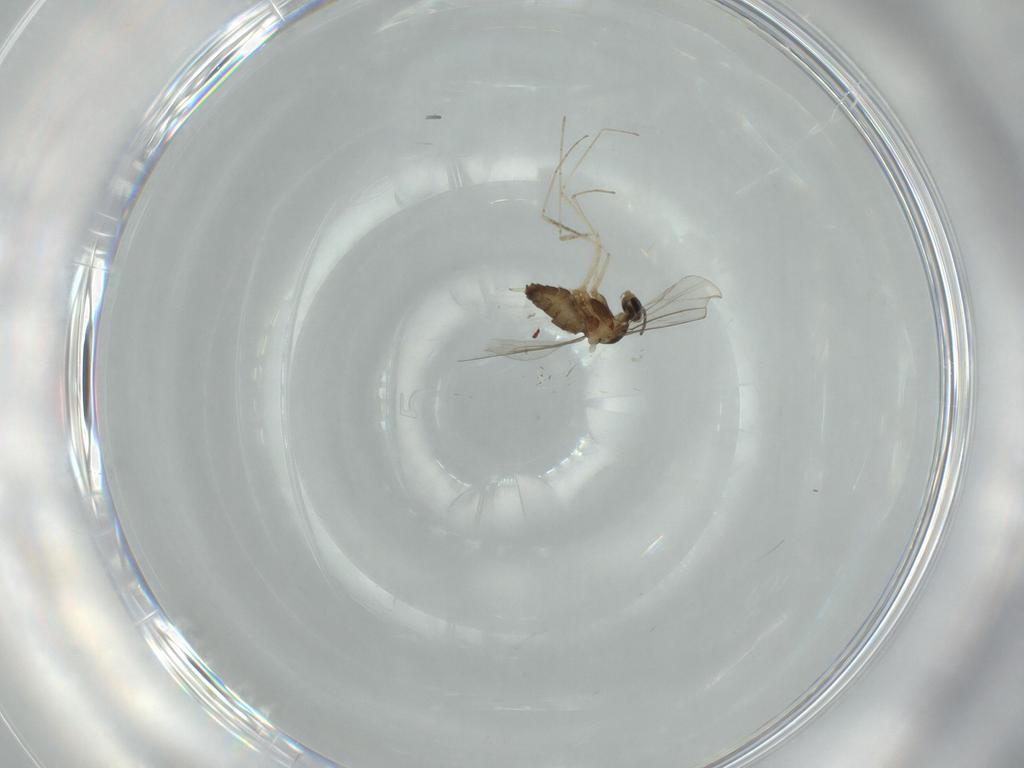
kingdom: Animalia
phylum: Arthropoda
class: Insecta
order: Diptera
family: Cecidomyiidae
